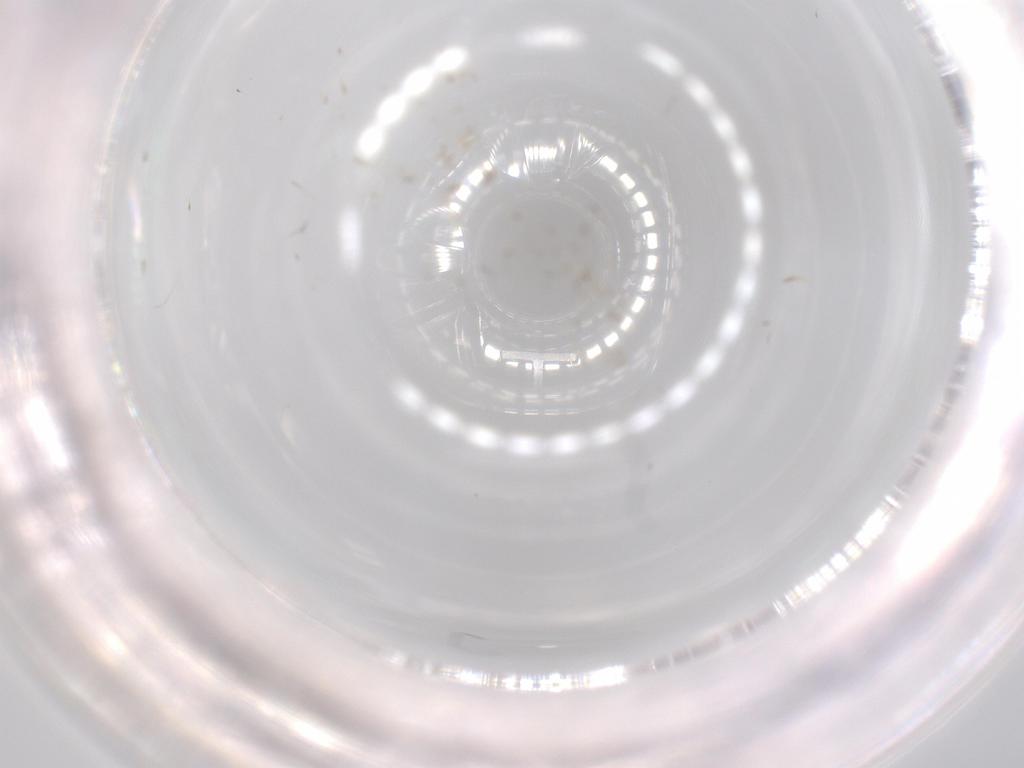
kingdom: Animalia
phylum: Arthropoda
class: Insecta
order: Diptera
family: Cecidomyiidae
